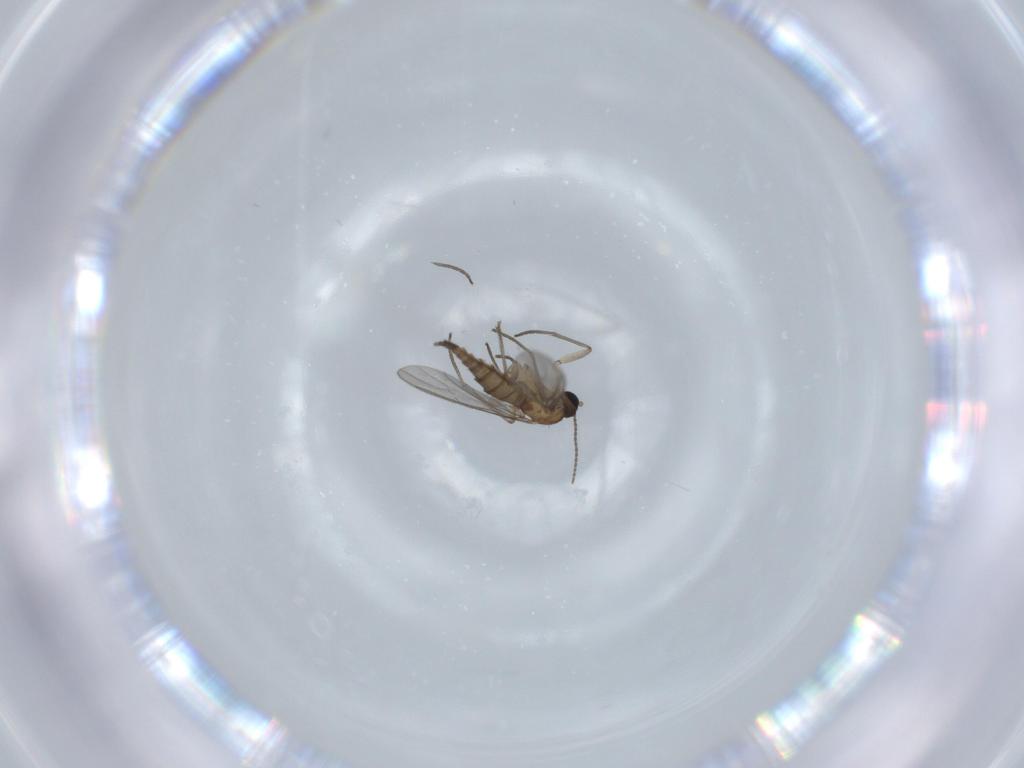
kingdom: Animalia
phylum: Arthropoda
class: Insecta
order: Diptera
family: Sciaridae
